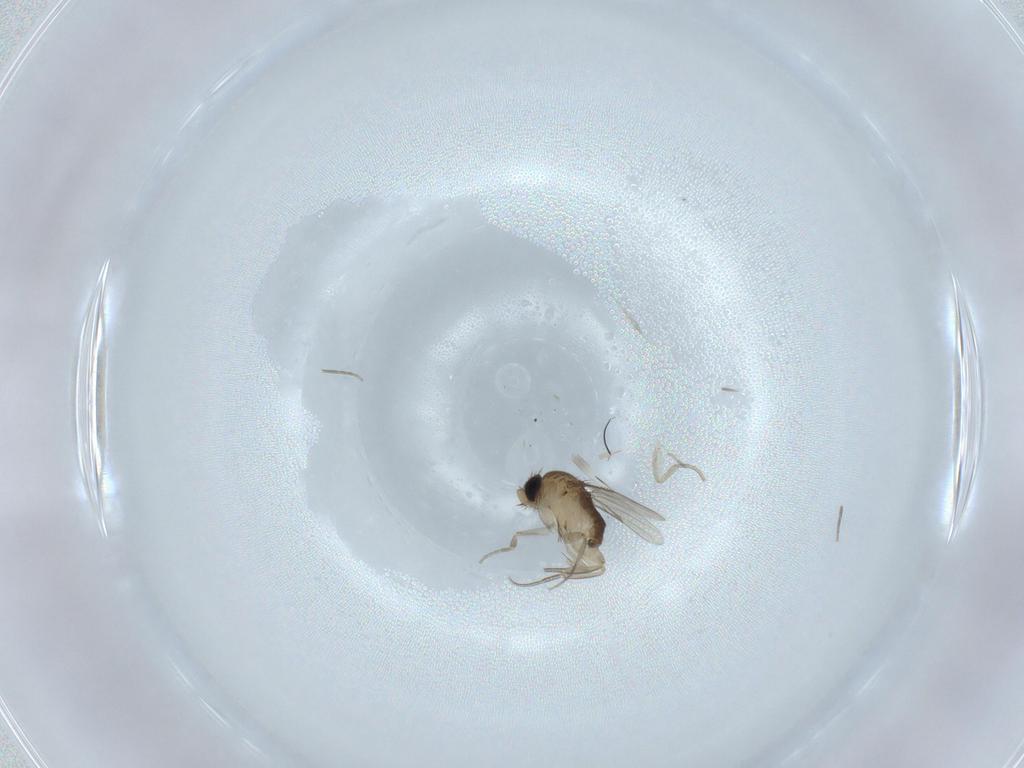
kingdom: Animalia
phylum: Arthropoda
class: Insecta
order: Diptera
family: Phoridae
